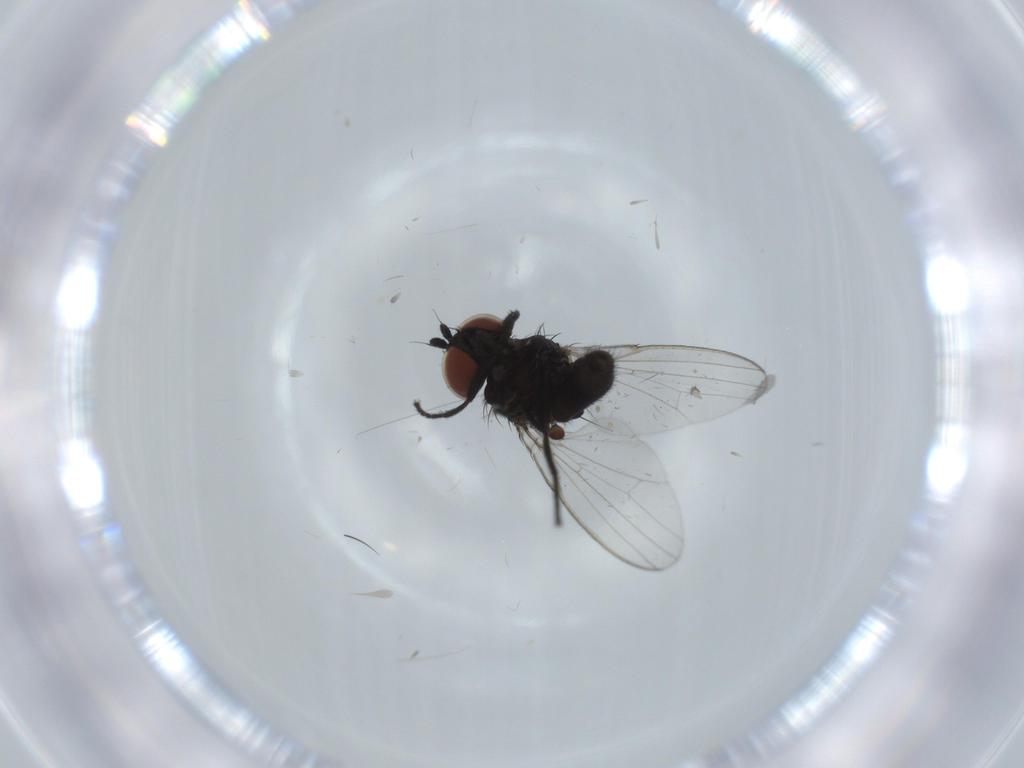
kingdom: Animalia
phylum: Arthropoda
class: Insecta
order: Diptera
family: Milichiidae
